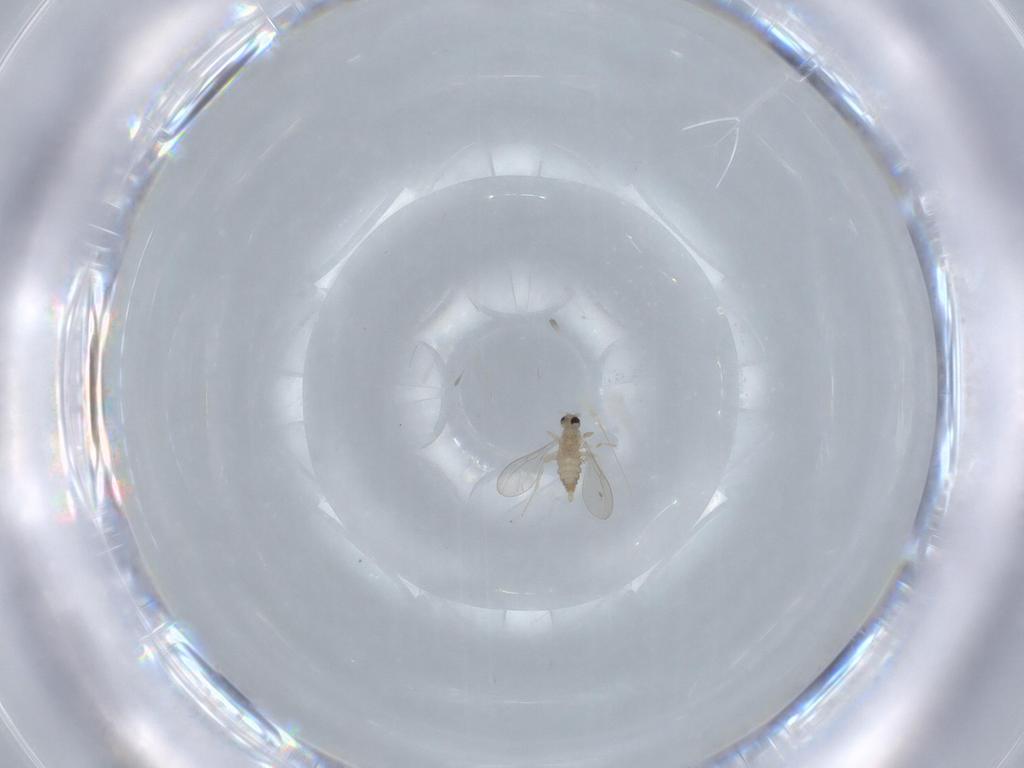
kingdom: Animalia
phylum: Arthropoda
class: Insecta
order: Diptera
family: Cecidomyiidae
